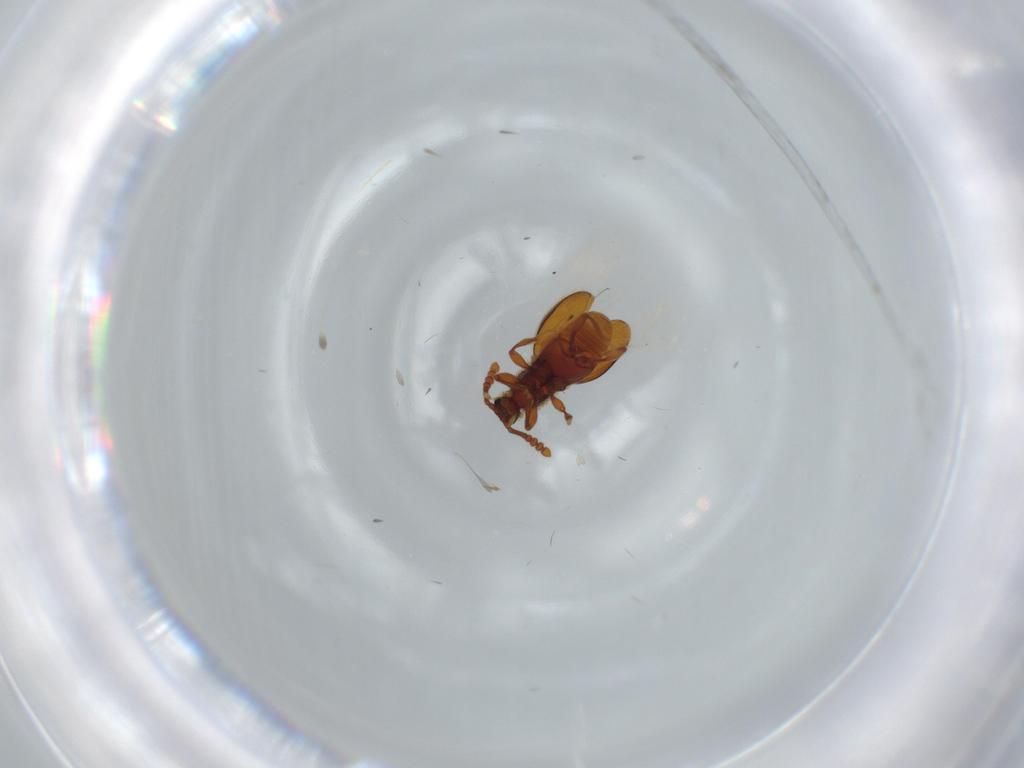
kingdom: Animalia
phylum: Arthropoda
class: Insecta
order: Coleoptera
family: Staphylinidae
